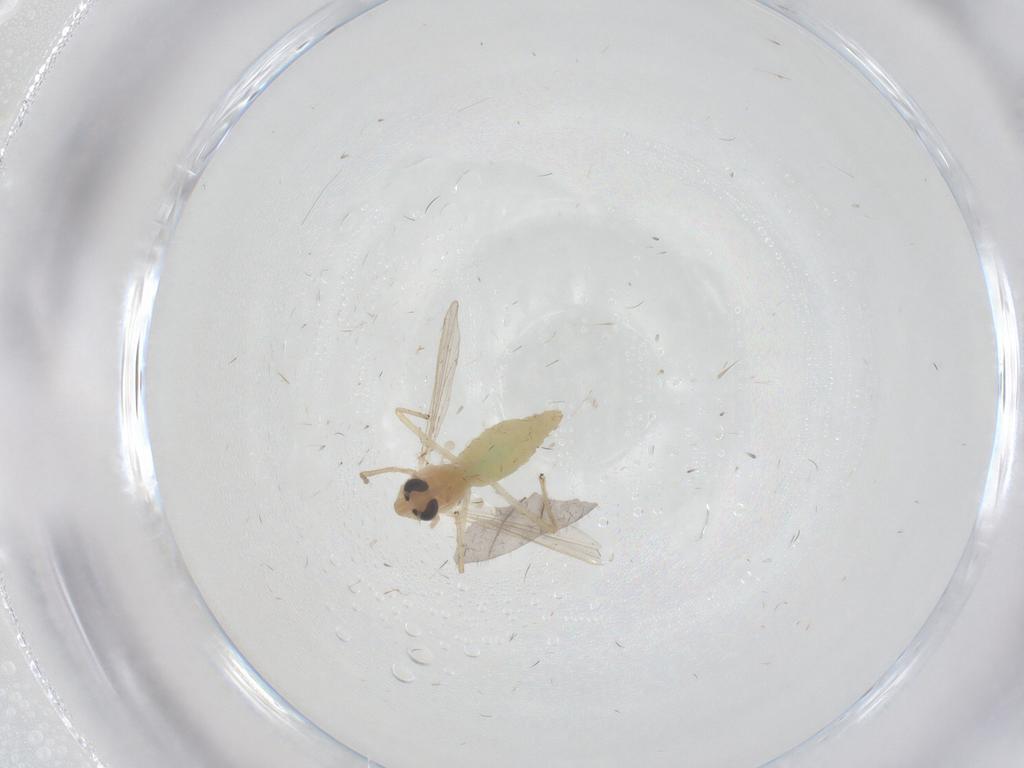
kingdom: Animalia
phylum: Arthropoda
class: Insecta
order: Diptera
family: Chironomidae
